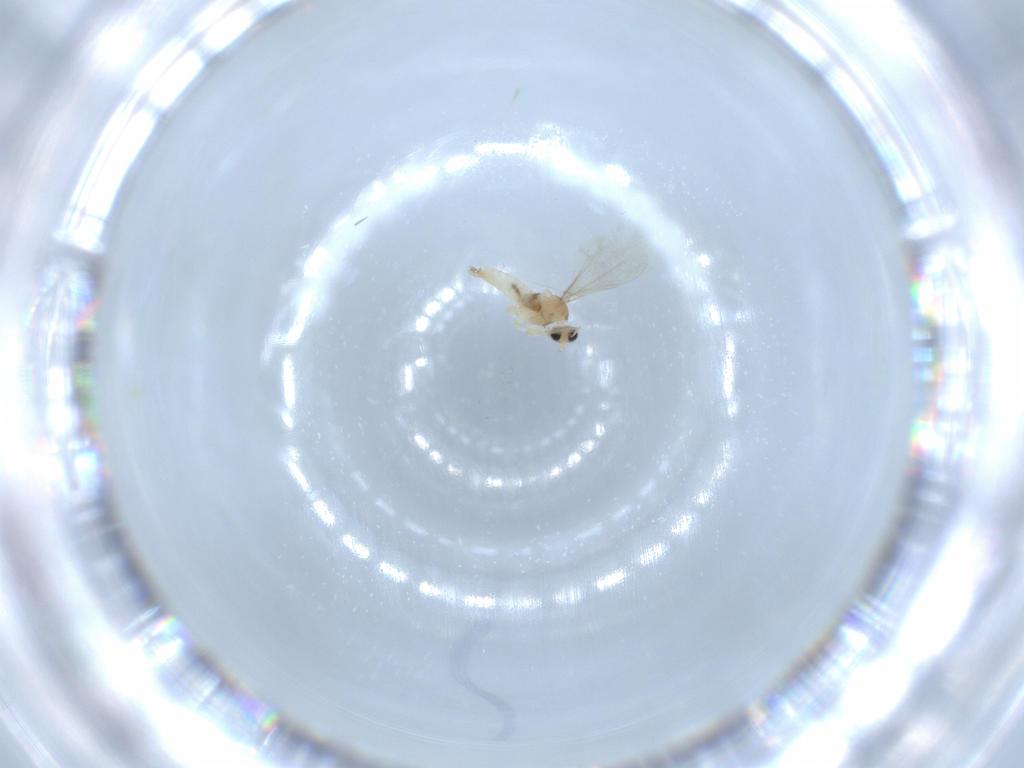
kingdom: Animalia
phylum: Arthropoda
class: Insecta
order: Diptera
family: Cecidomyiidae
